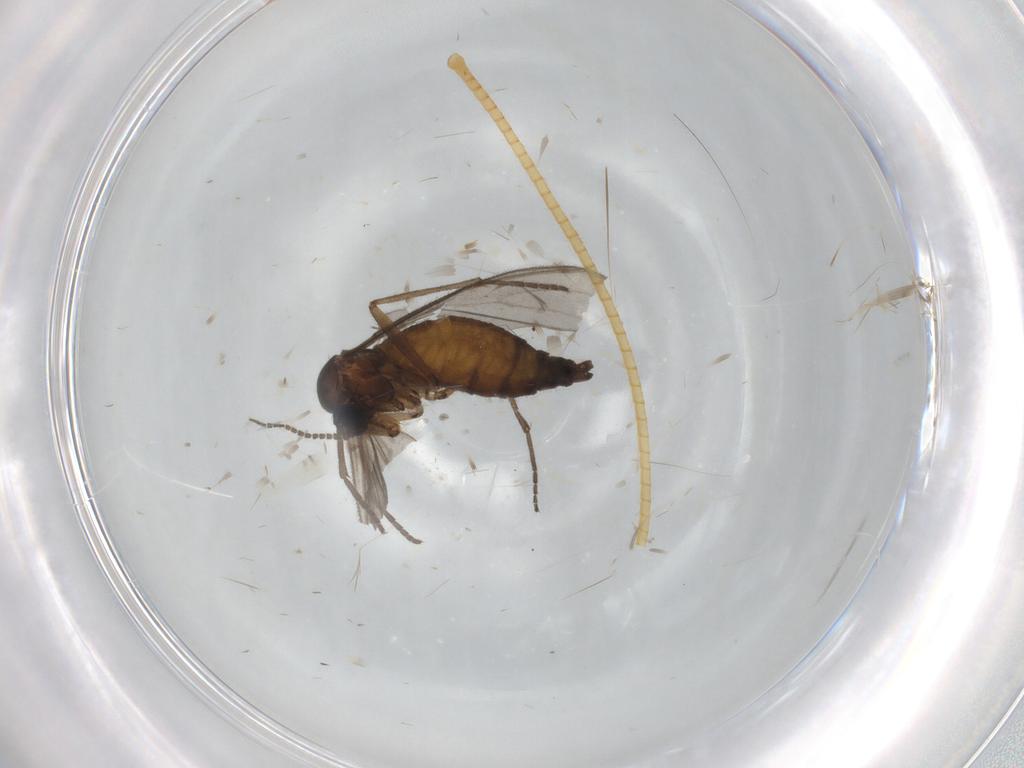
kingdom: Animalia
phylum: Arthropoda
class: Insecta
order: Diptera
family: Sciaridae
